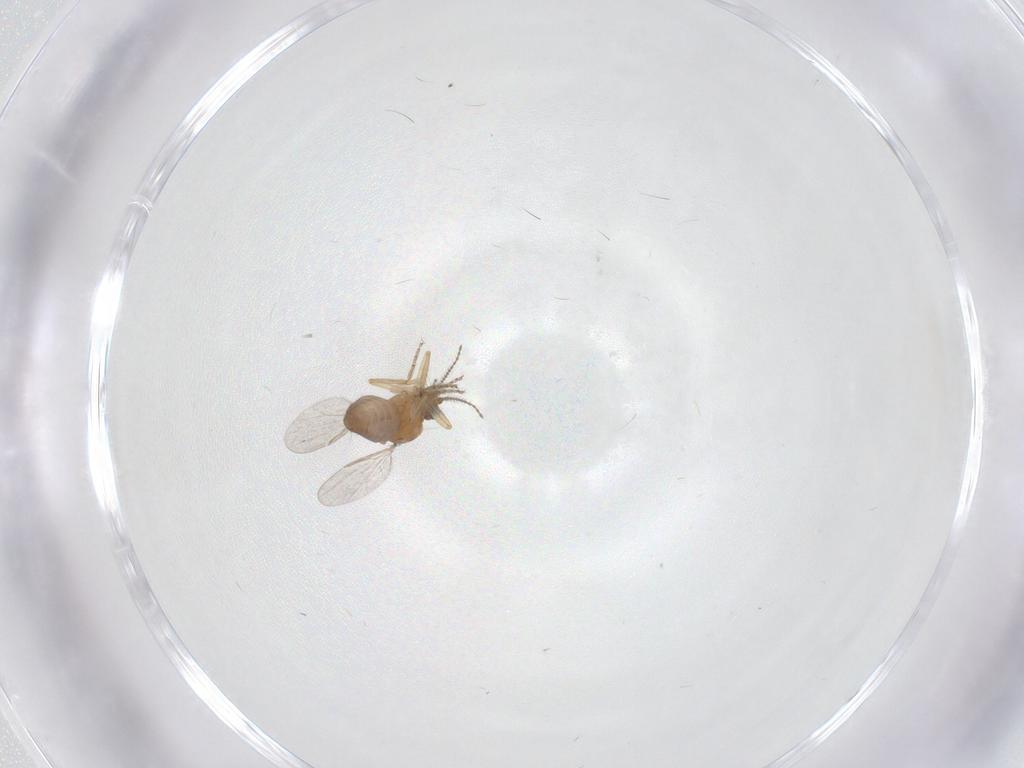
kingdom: Animalia
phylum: Arthropoda
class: Insecta
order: Diptera
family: Ceratopogonidae
